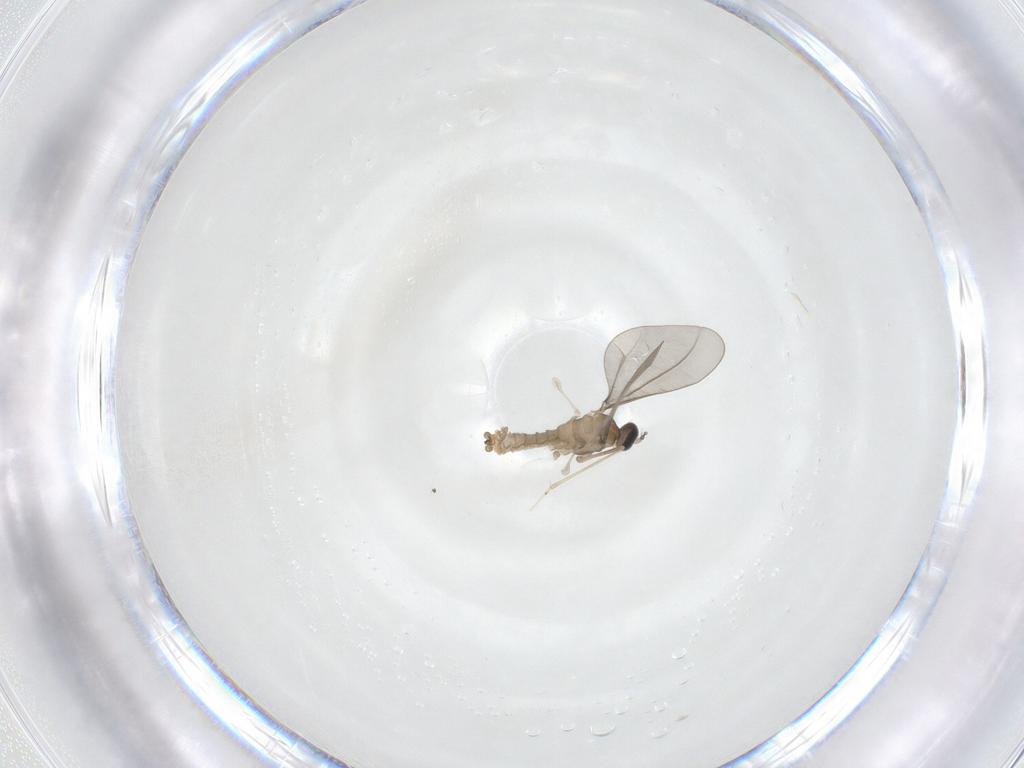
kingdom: Animalia
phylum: Arthropoda
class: Insecta
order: Diptera
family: Cecidomyiidae
